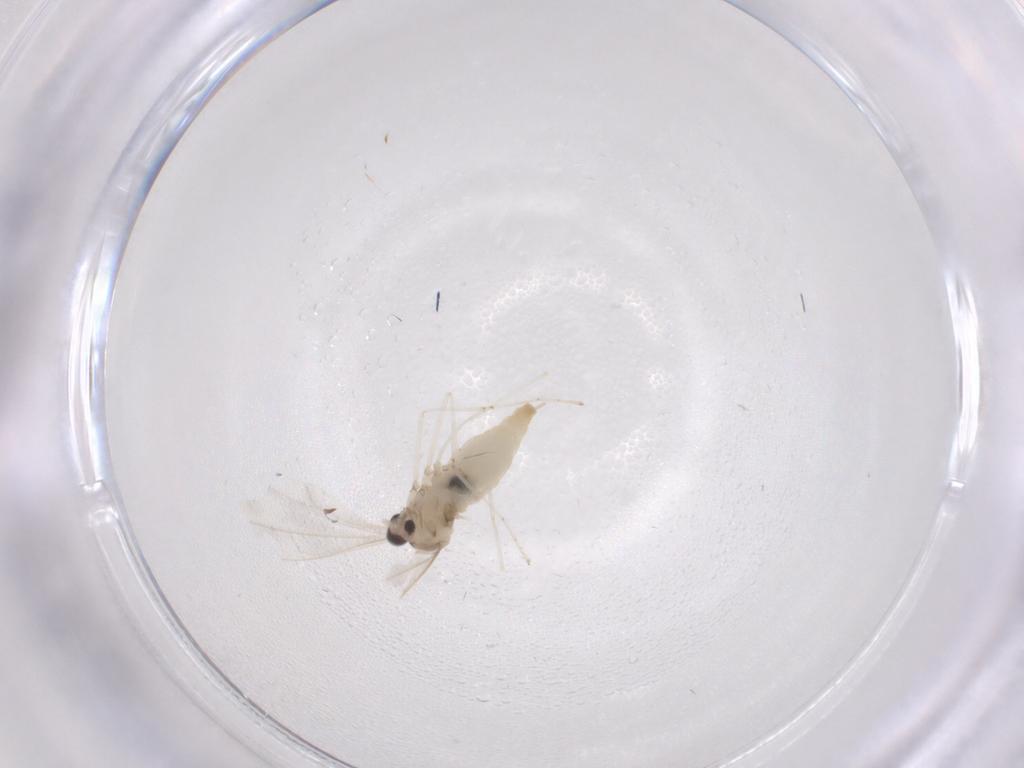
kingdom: Animalia
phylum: Arthropoda
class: Insecta
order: Diptera
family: Cecidomyiidae
